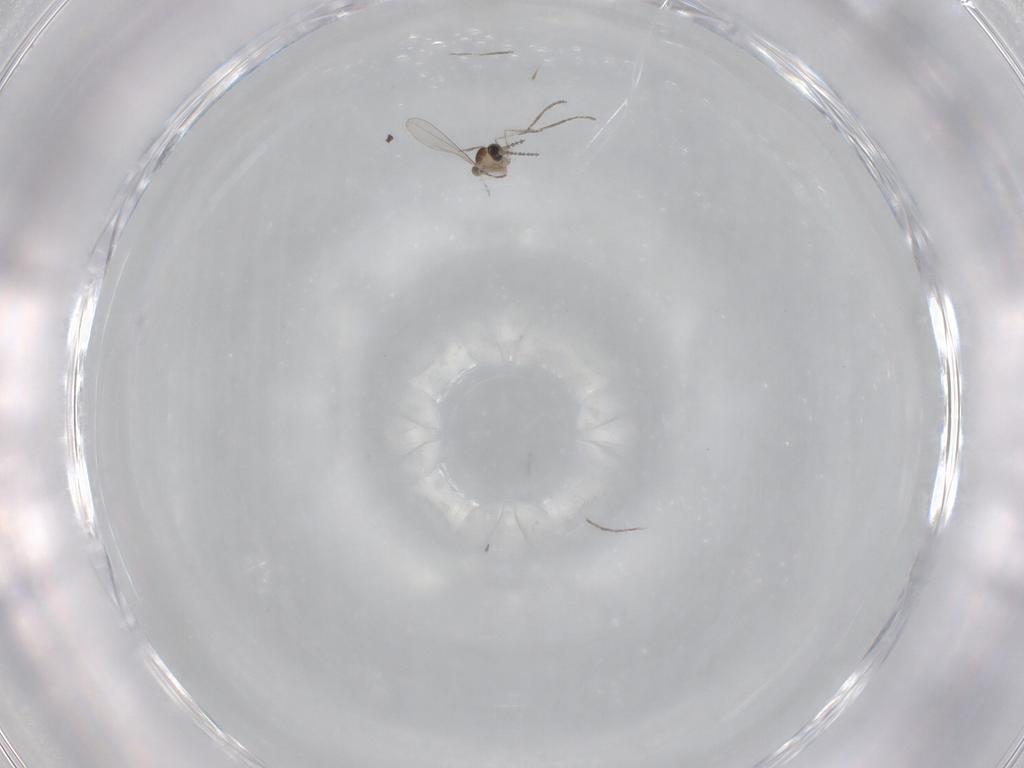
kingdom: Animalia
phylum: Arthropoda
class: Insecta
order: Diptera
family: Cecidomyiidae
